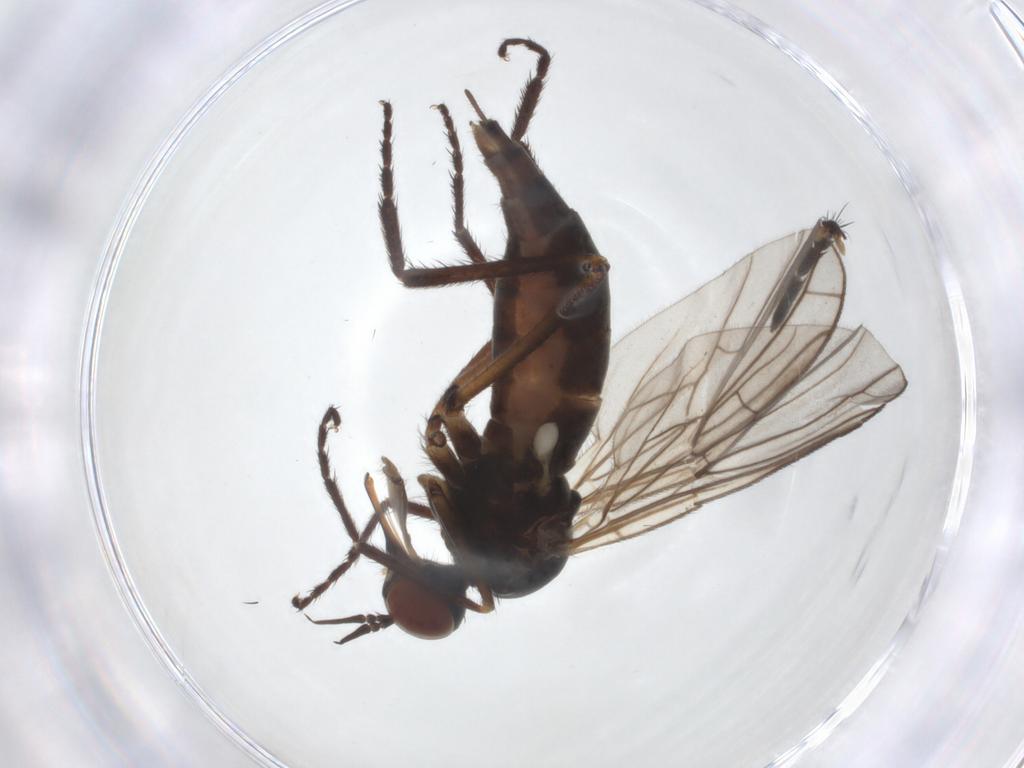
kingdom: Animalia
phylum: Arthropoda
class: Insecta
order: Diptera
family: Empididae
